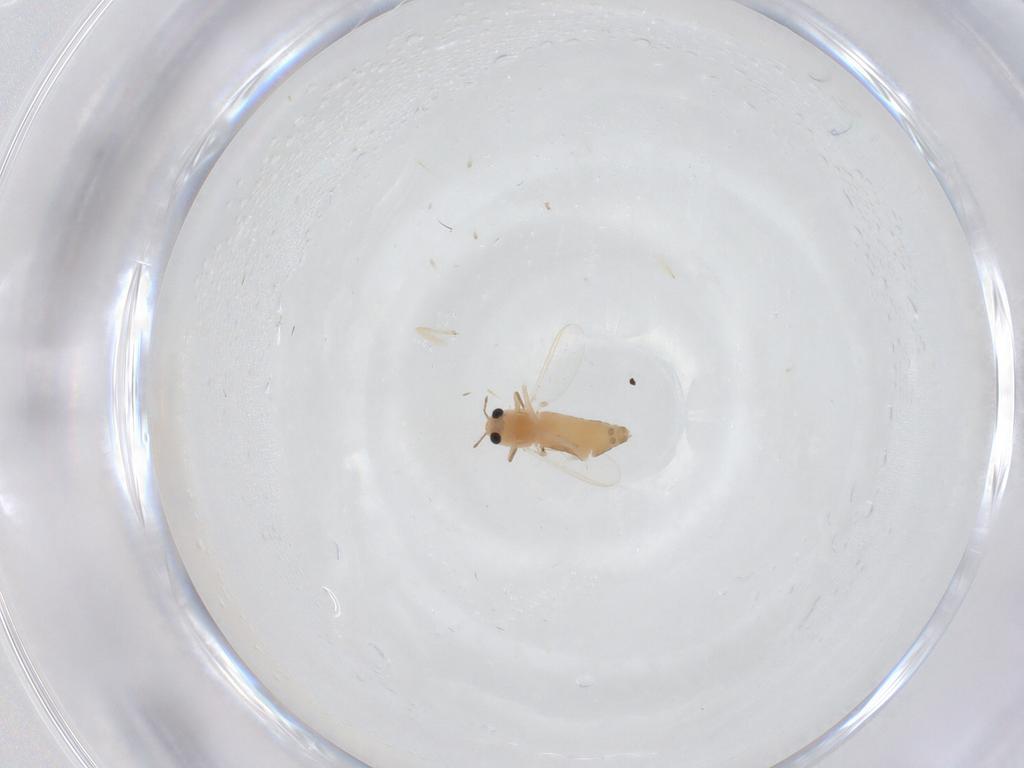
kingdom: Animalia
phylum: Arthropoda
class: Insecta
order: Diptera
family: Chironomidae
